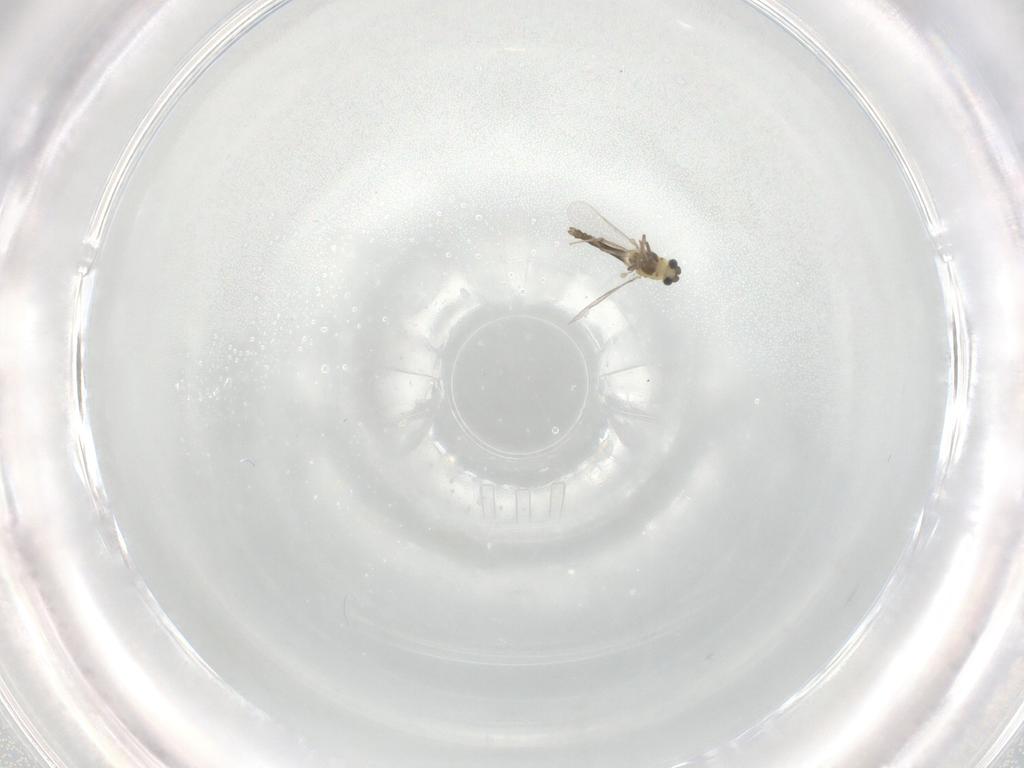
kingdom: Animalia
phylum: Arthropoda
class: Insecta
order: Diptera
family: Chironomidae
